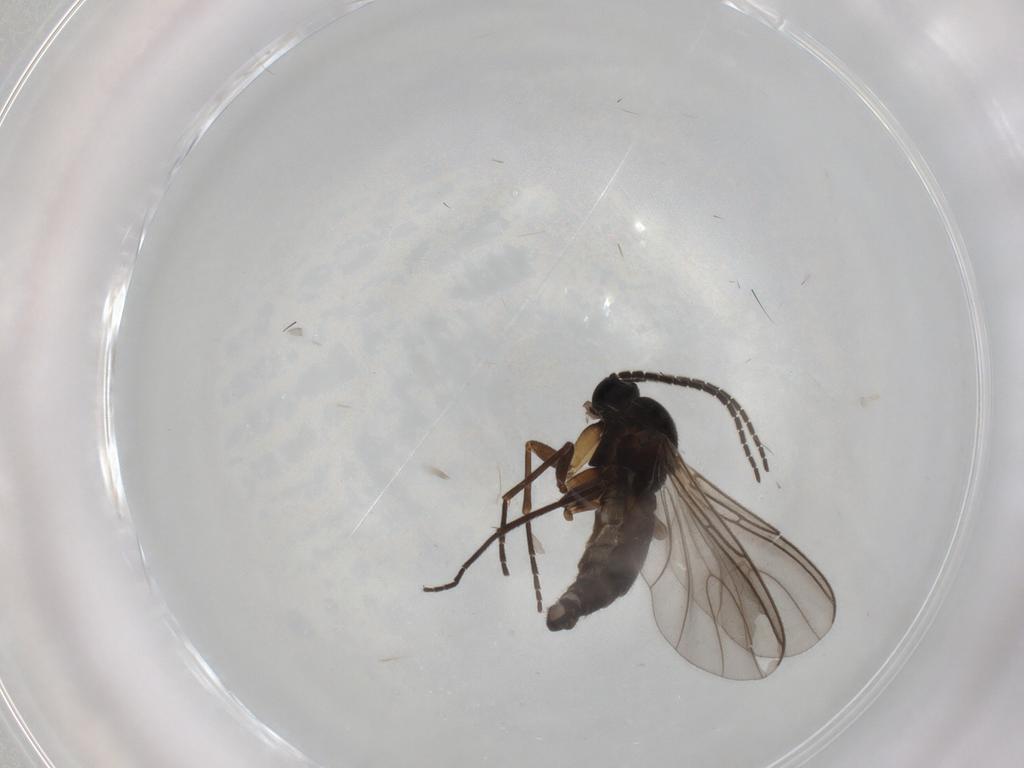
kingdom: Animalia
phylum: Arthropoda
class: Insecta
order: Diptera
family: Sciaridae
